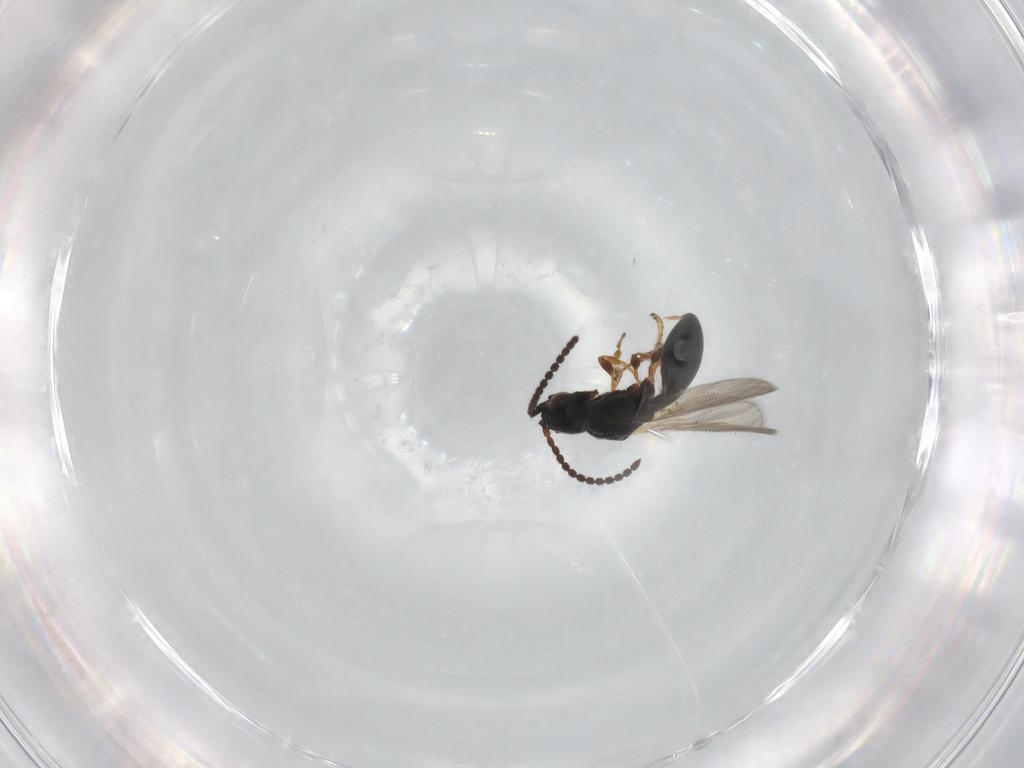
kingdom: Animalia
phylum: Arthropoda
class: Insecta
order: Hymenoptera
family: Diapriidae
